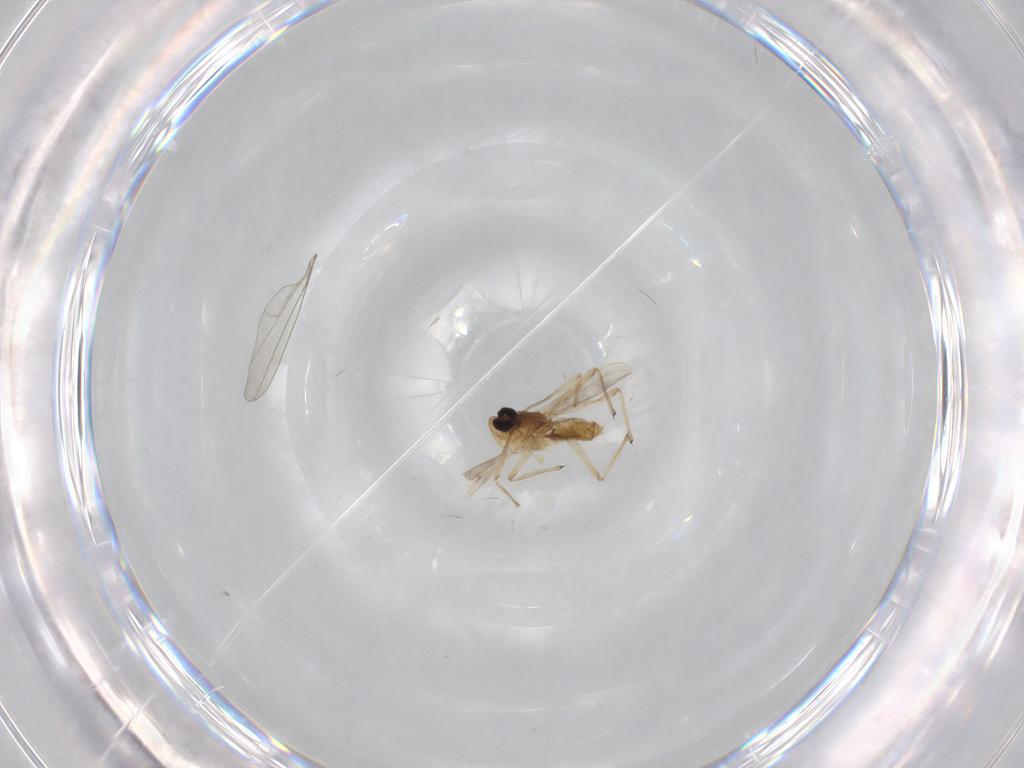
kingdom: Animalia
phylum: Arthropoda
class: Insecta
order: Diptera
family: Chironomidae
